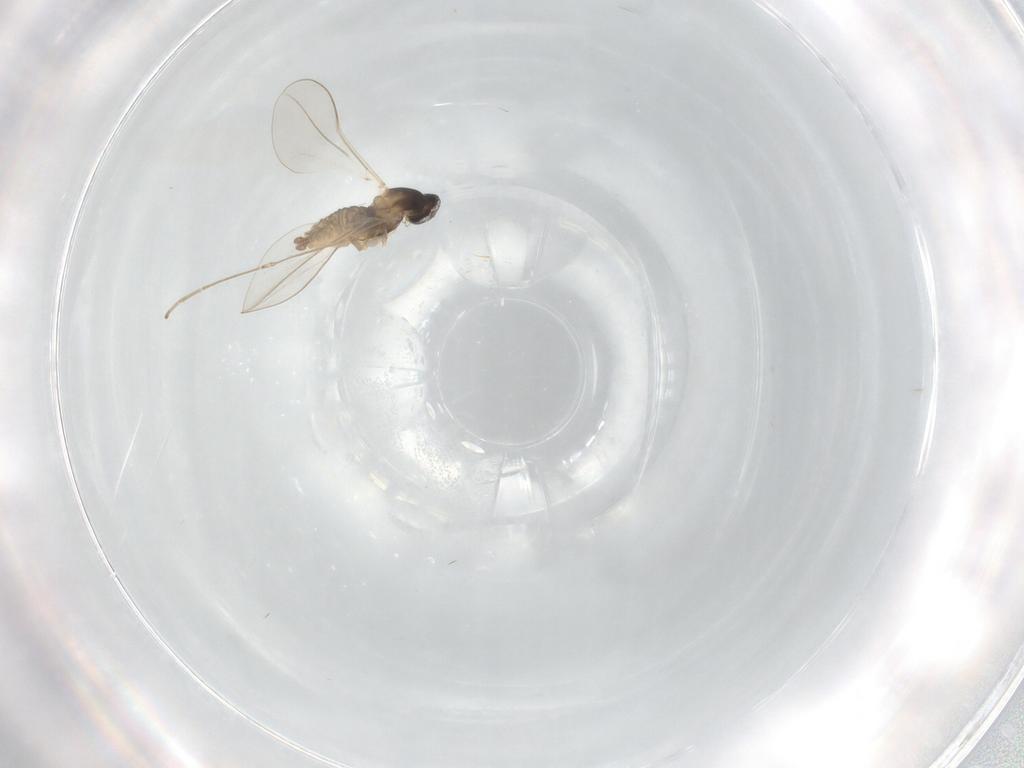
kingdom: Animalia
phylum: Arthropoda
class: Insecta
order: Diptera
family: Cecidomyiidae
